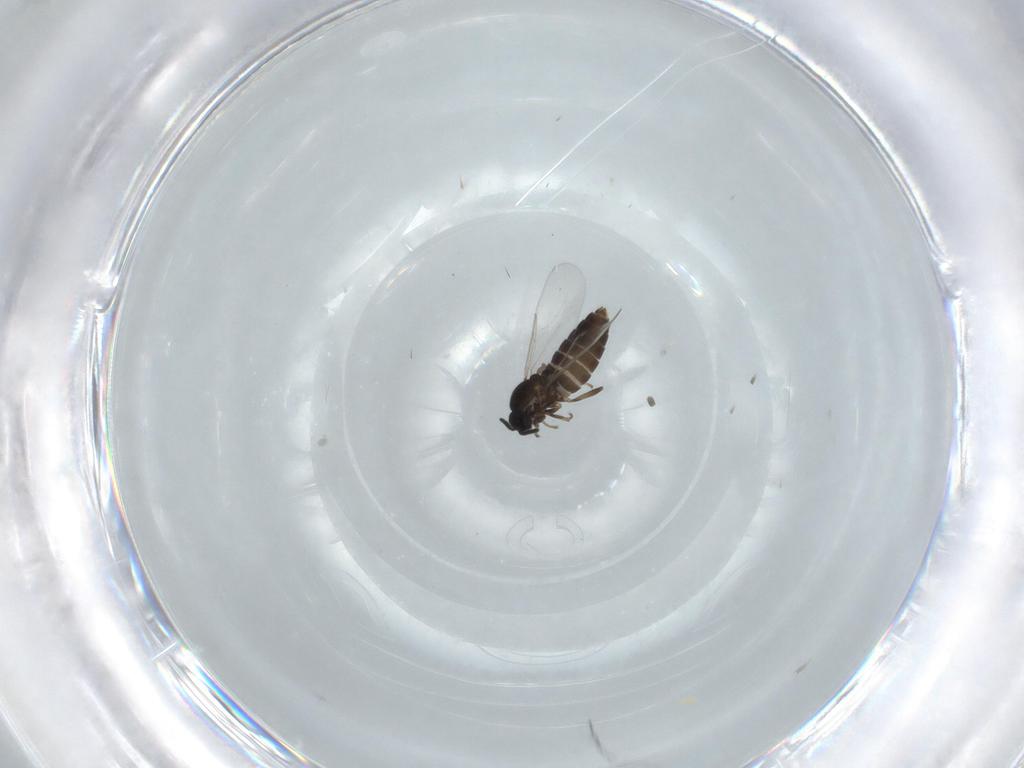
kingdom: Animalia
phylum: Arthropoda
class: Insecta
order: Diptera
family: Scatopsidae
